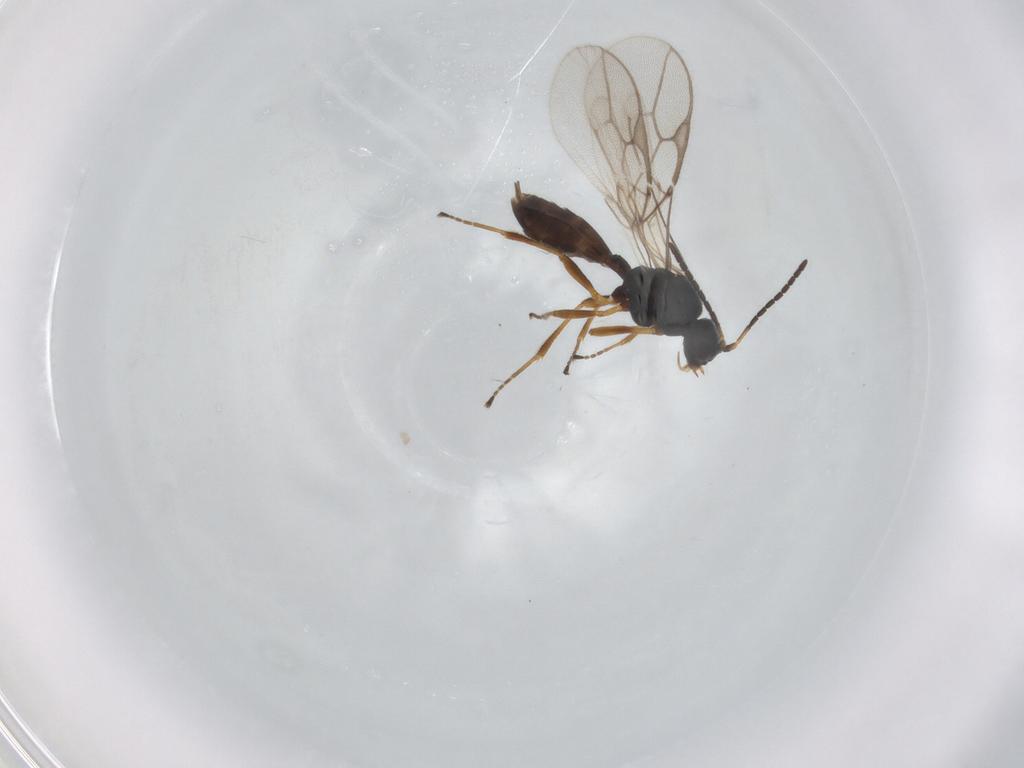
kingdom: Animalia
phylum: Arthropoda
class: Insecta
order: Hymenoptera
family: Braconidae
